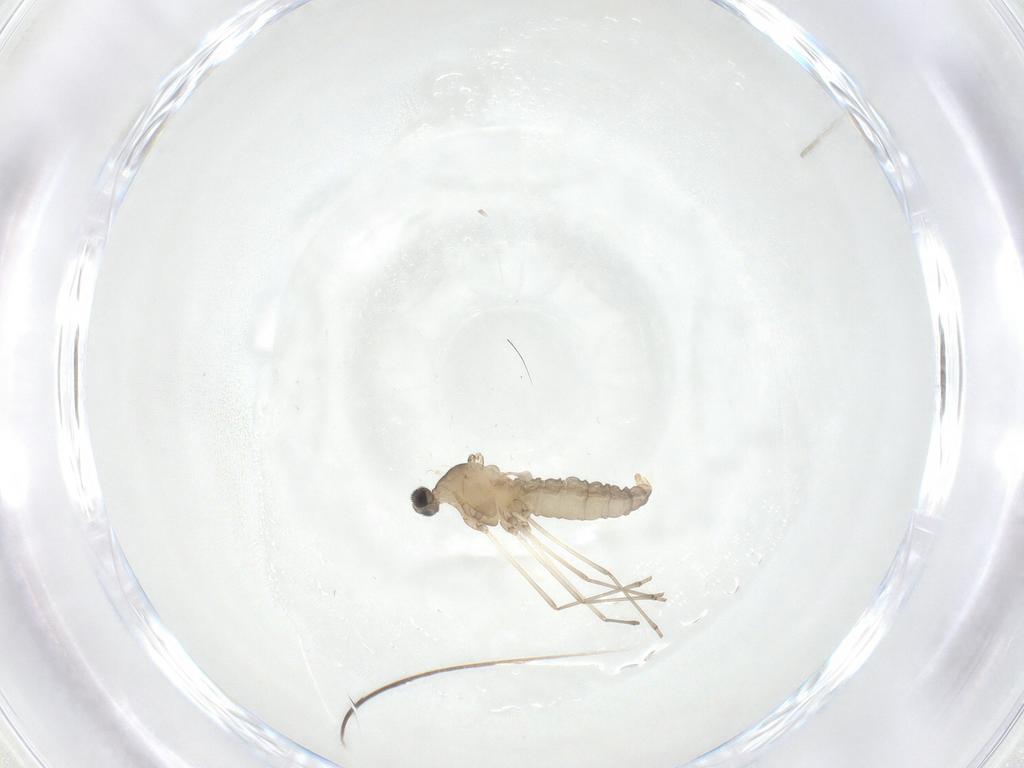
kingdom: Animalia
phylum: Arthropoda
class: Insecta
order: Diptera
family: Cecidomyiidae
